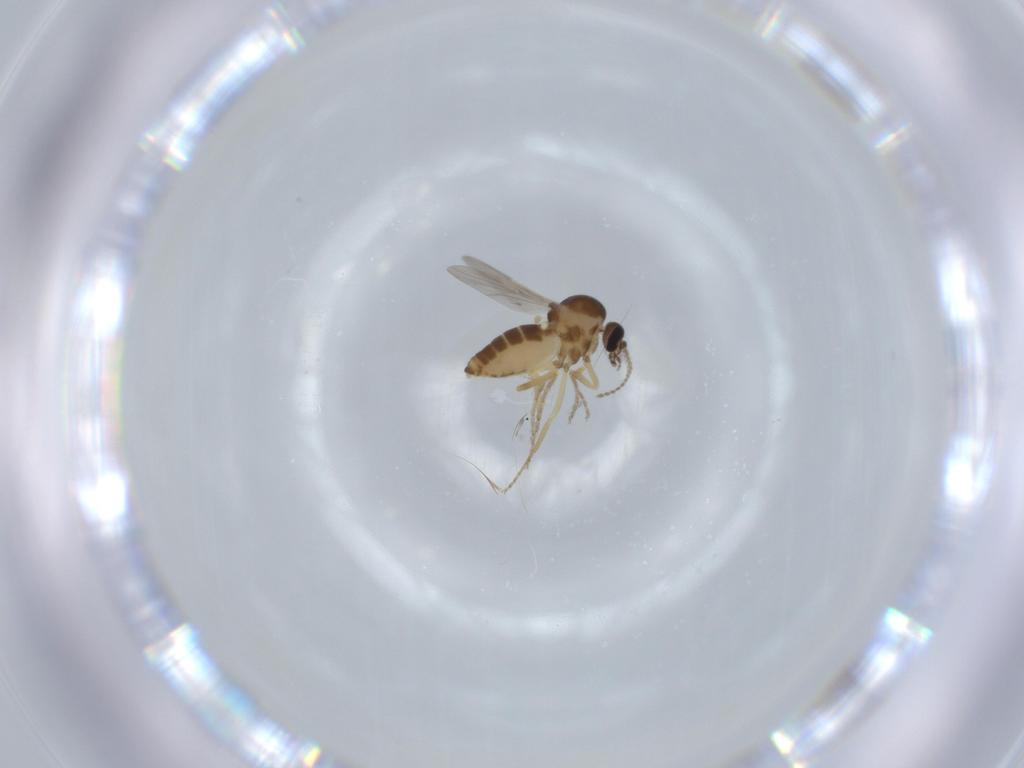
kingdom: Animalia
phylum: Arthropoda
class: Insecta
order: Diptera
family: Ceratopogonidae
